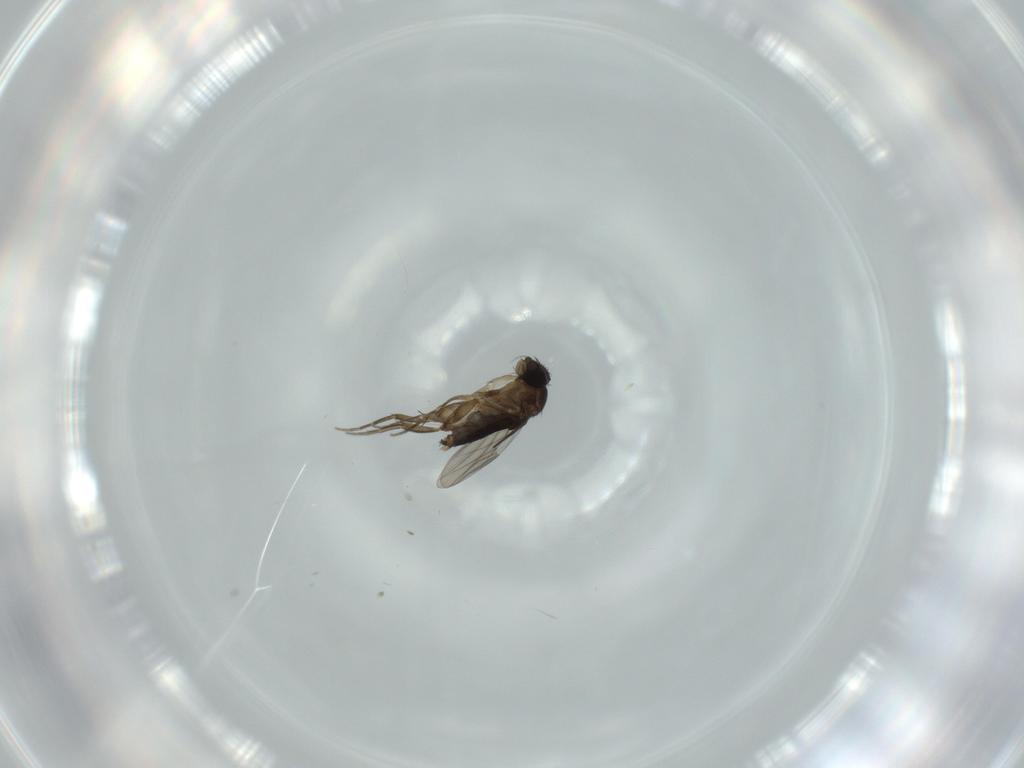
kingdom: Animalia
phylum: Arthropoda
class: Insecta
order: Diptera
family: Phoridae
